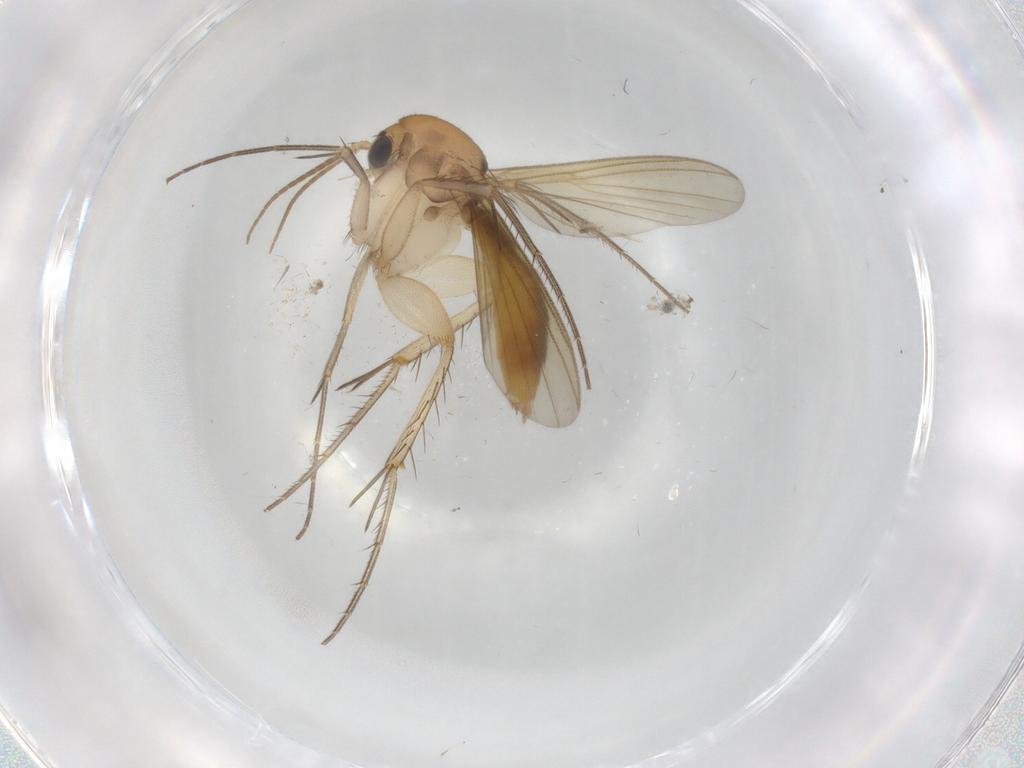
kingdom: Animalia
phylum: Arthropoda
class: Insecta
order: Diptera
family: Mycetophilidae
